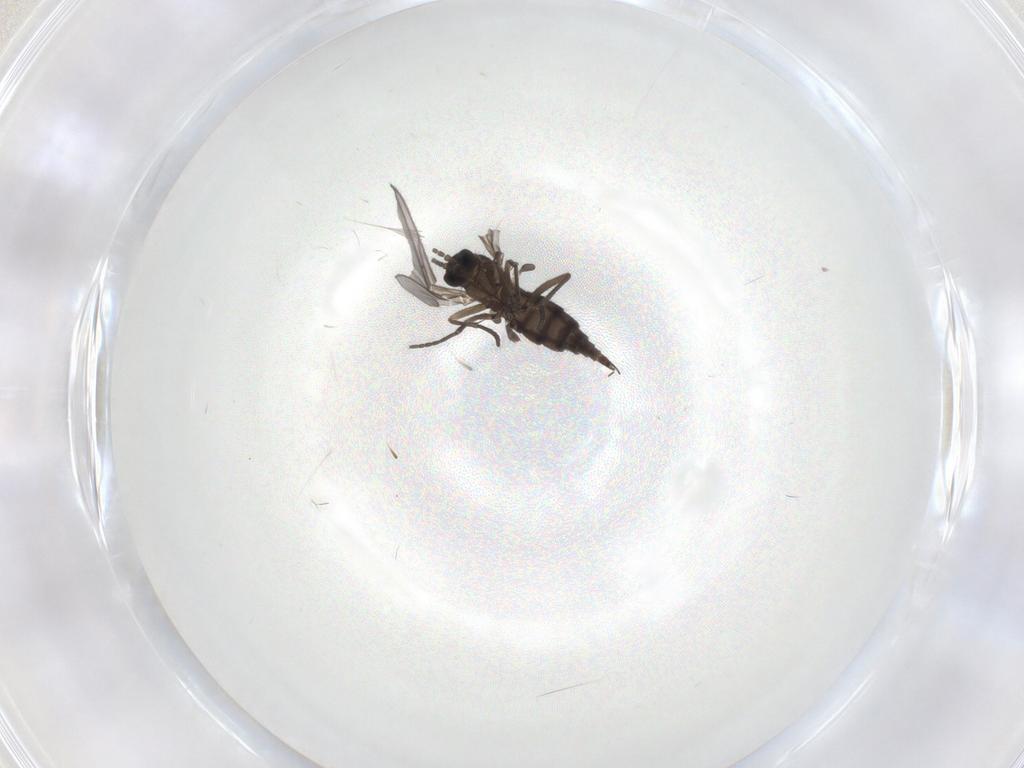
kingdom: Animalia
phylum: Arthropoda
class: Insecta
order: Diptera
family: Sciaridae
